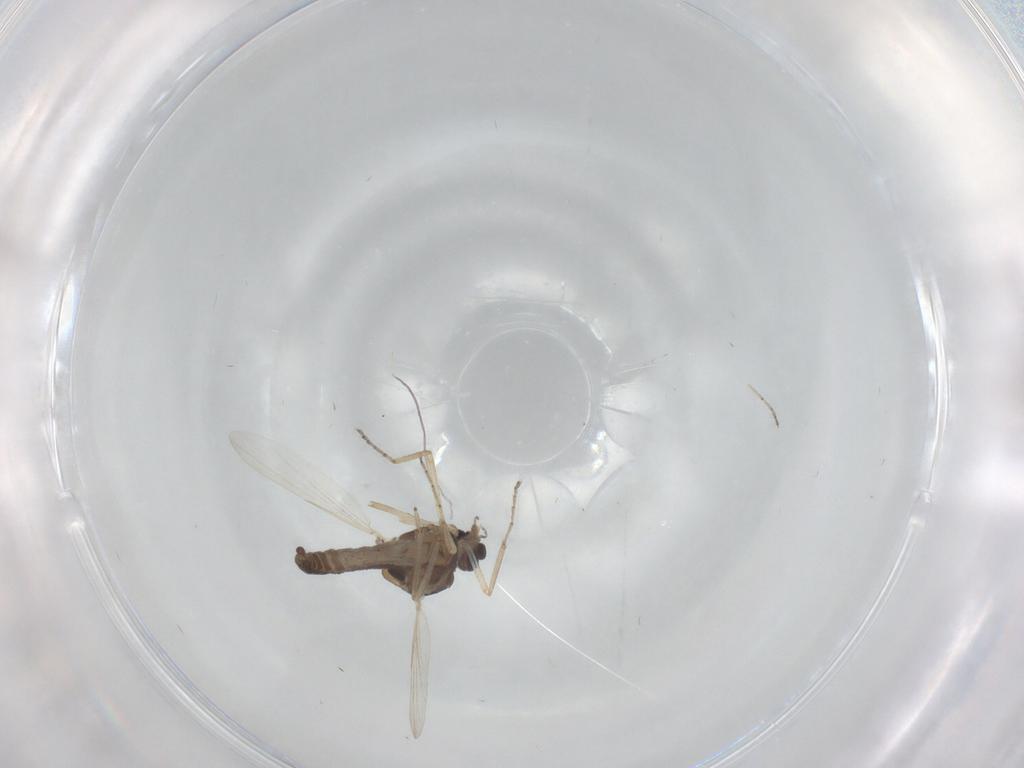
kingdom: Animalia
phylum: Arthropoda
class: Insecta
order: Diptera
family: Ceratopogonidae
